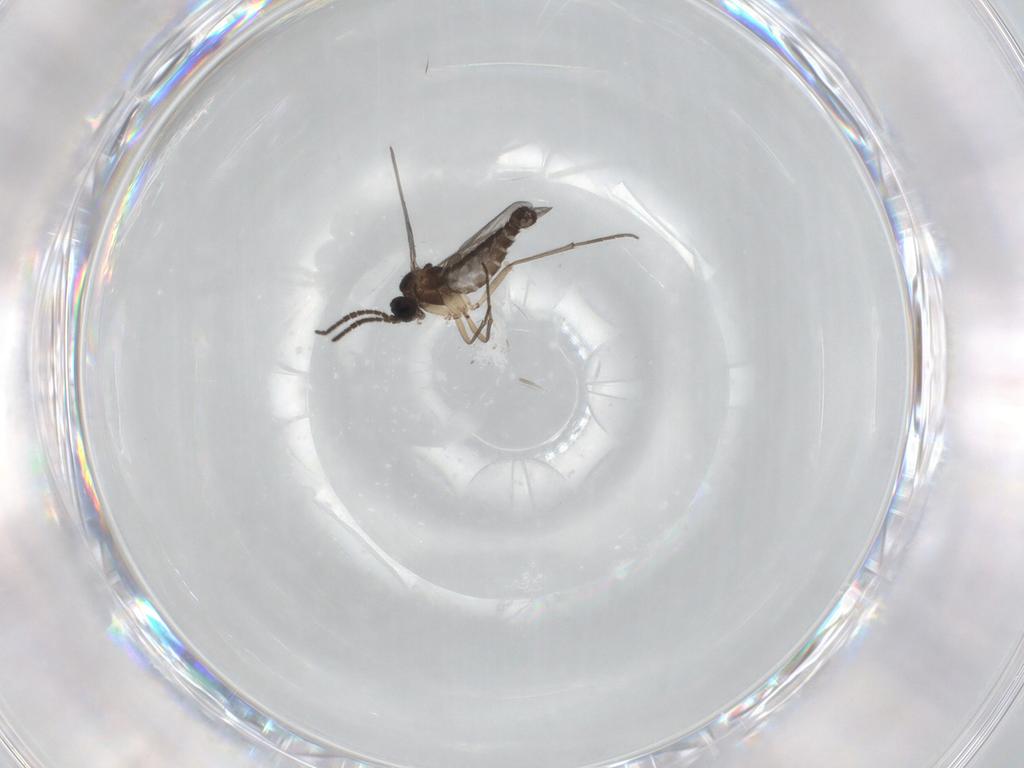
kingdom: Animalia
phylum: Arthropoda
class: Insecta
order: Diptera
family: Sciaridae
